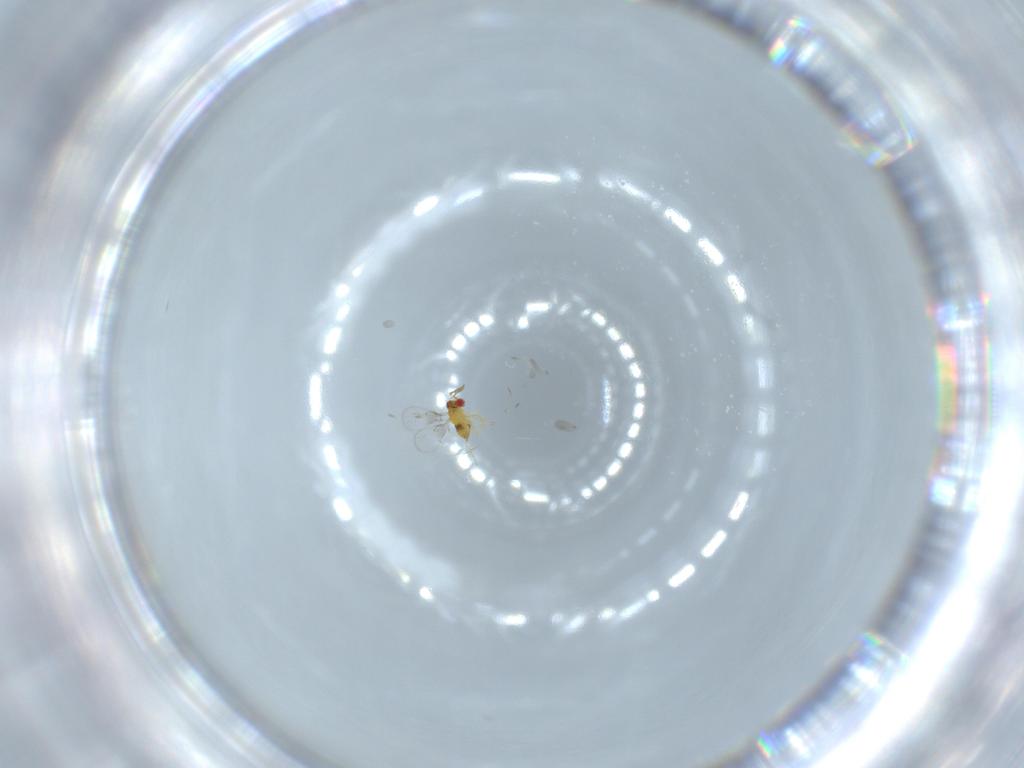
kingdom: Animalia
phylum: Arthropoda
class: Insecta
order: Hymenoptera
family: Trichogrammatidae
